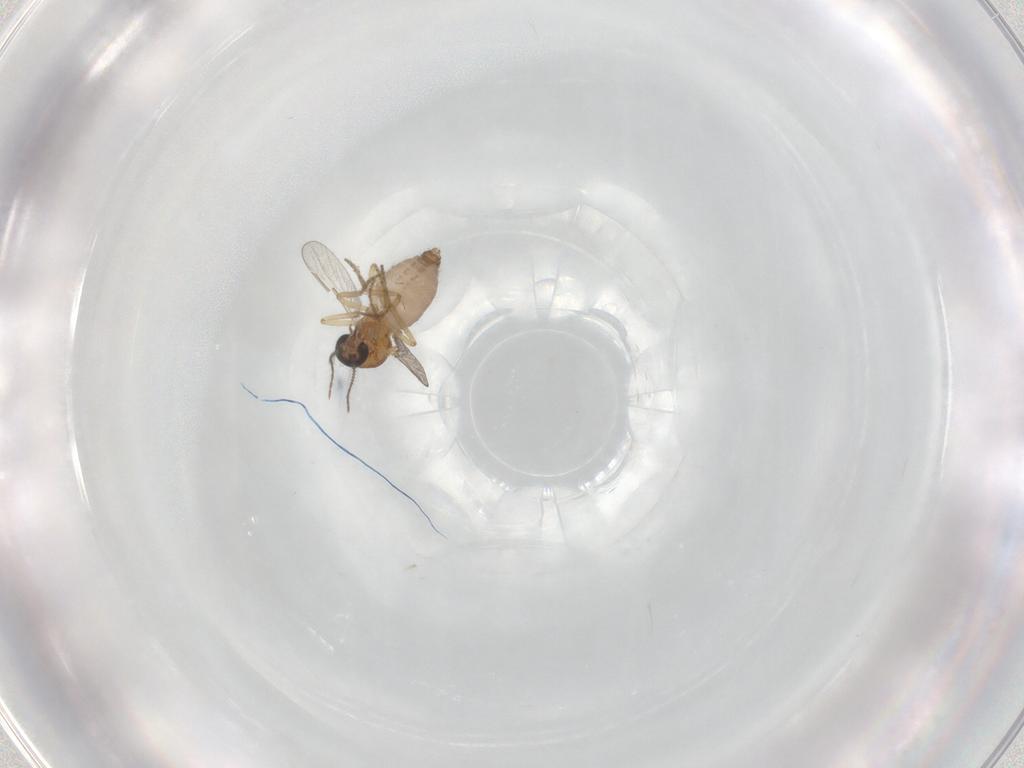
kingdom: Animalia
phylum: Arthropoda
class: Insecta
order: Diptera
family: Ceratopogonidae
